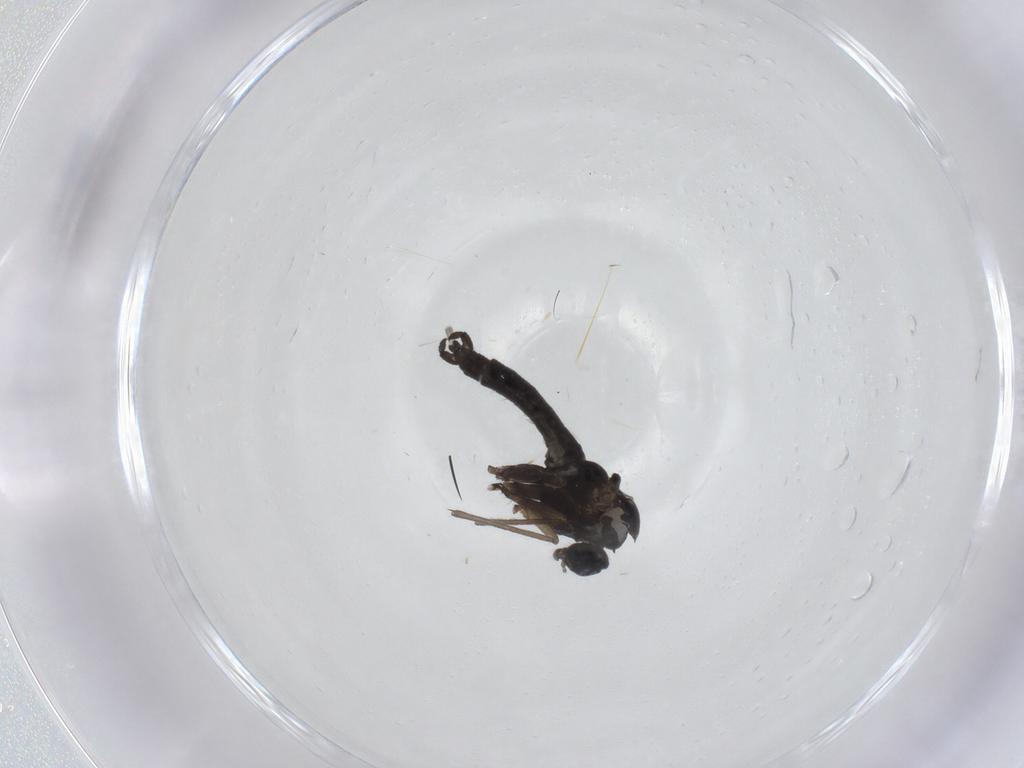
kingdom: Animalia
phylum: Arthropoda
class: Insecta
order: Diptera
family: Sciaridae
